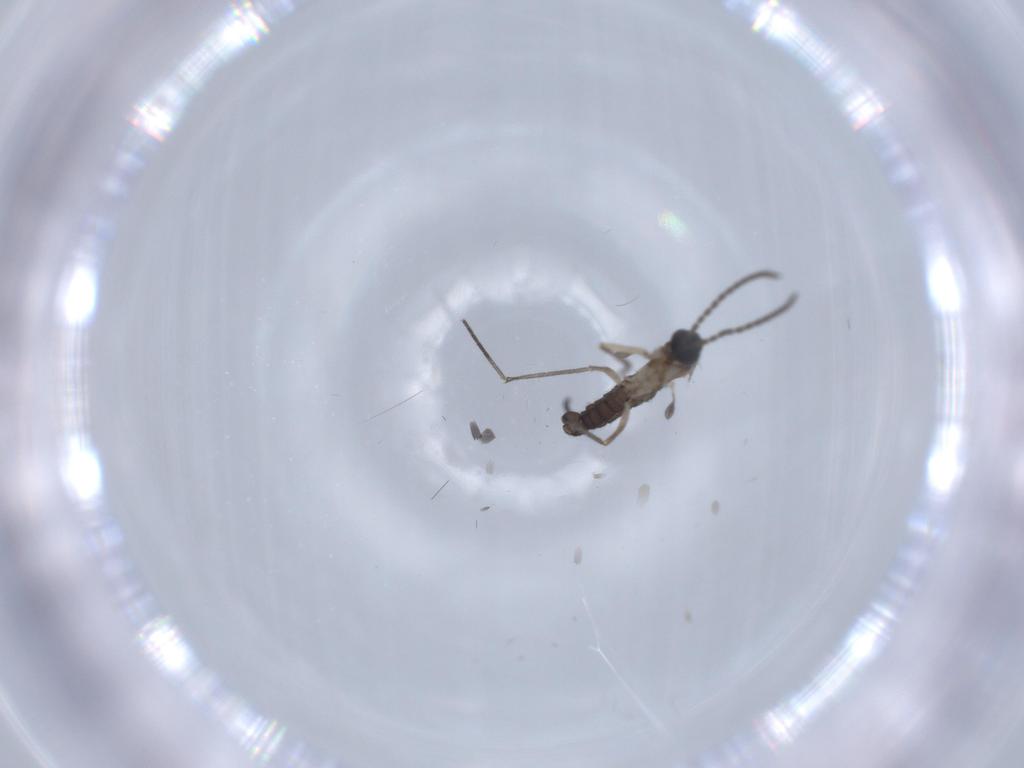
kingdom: Animalia
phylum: Arthropoda
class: Insecta
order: Diptera
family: Sciaridae
